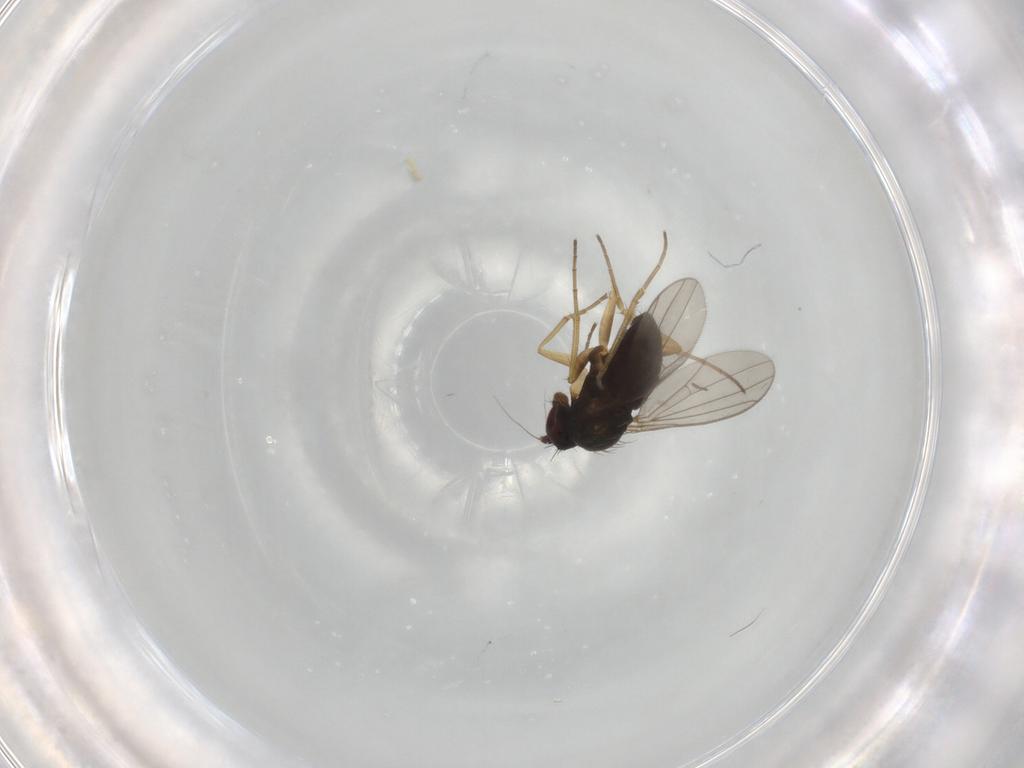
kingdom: Animalia
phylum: Arthropoda
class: Insecta
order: Diptera
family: Dolichopodidae
